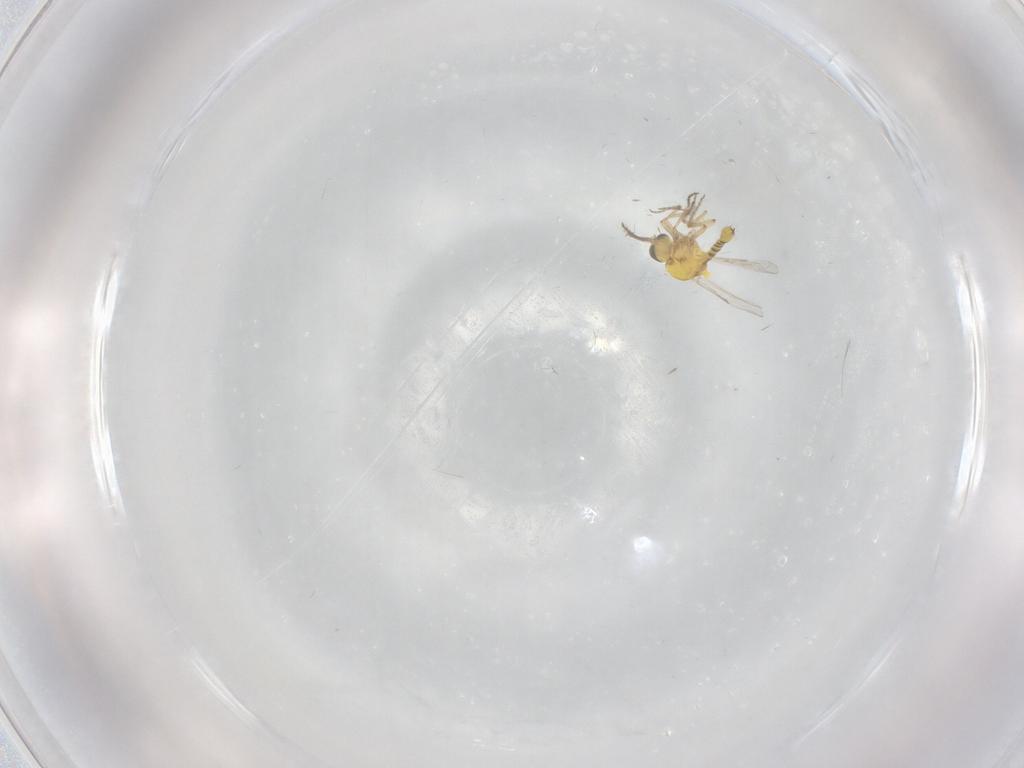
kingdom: Animalia
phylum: Arthropoda
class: Insecta
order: Diptera
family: Ceratopogonidae
